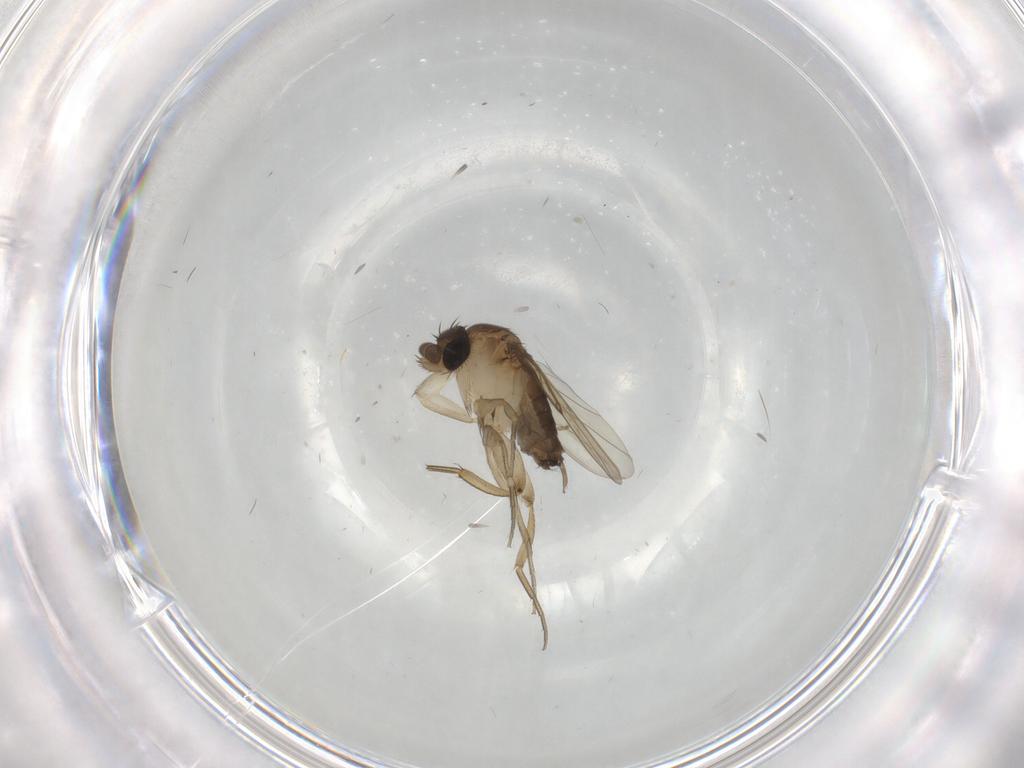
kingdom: Animalia
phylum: Arthropoda
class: Insecta
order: Diptera
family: Phoridae
